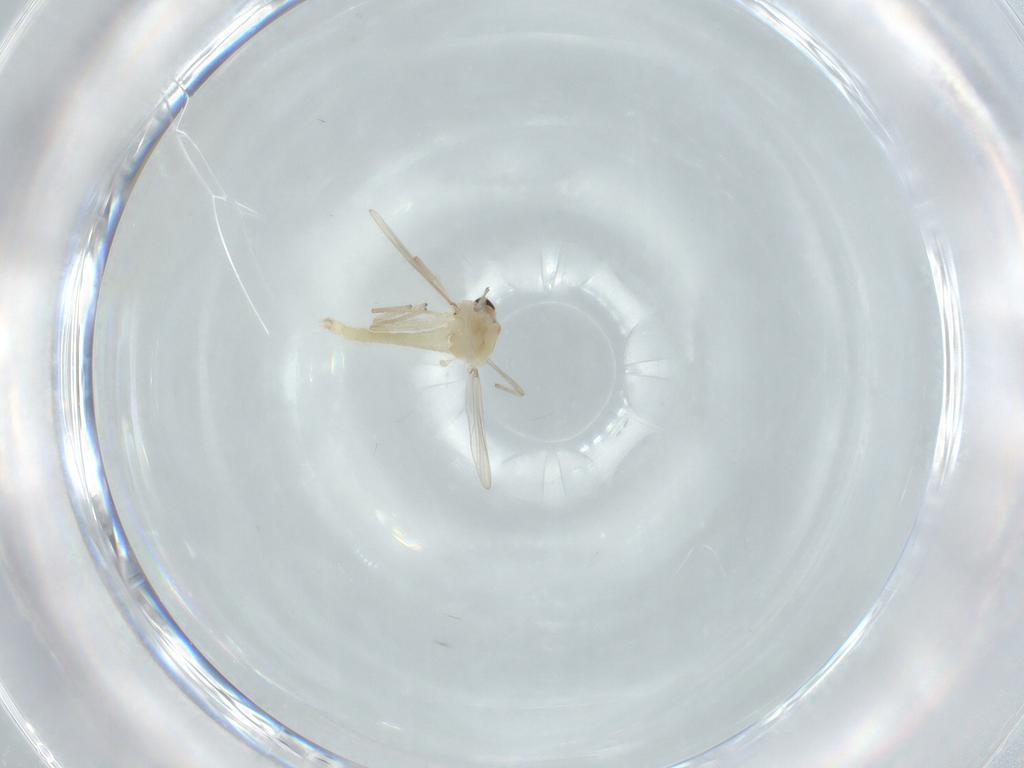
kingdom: Animalia
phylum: Arthropoda
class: Insecta
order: Diptera
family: Chironomidae
